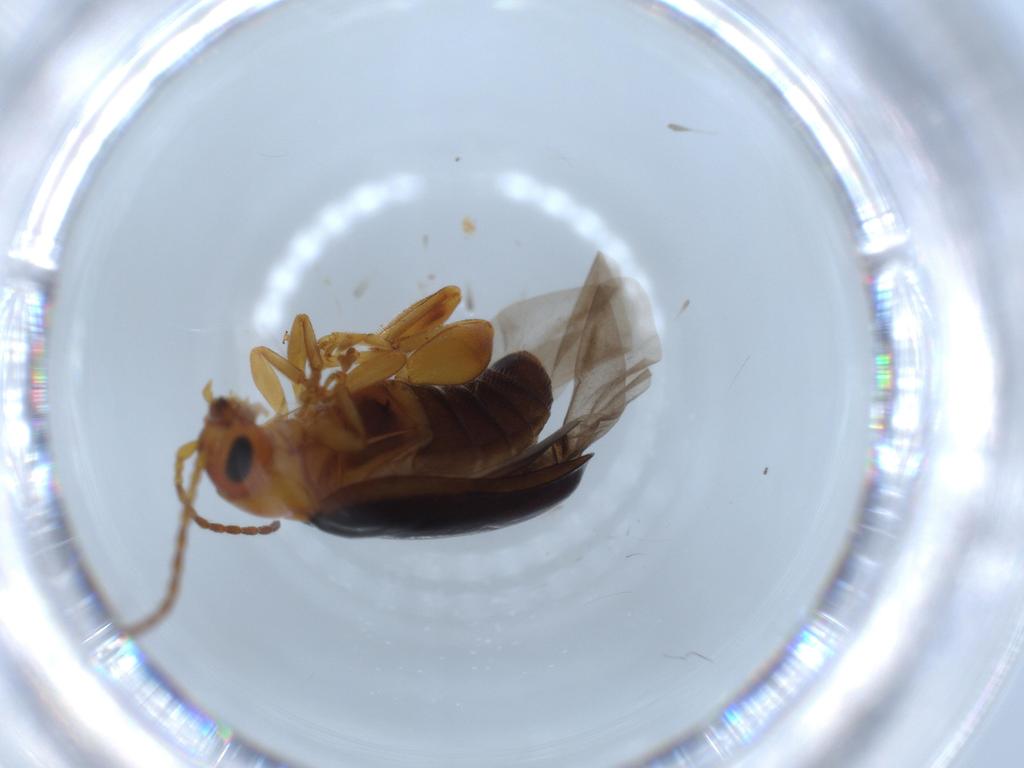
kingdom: Animalia
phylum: Arthropoda
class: Insecta
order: Coleoptera
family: Chrysomelidae
